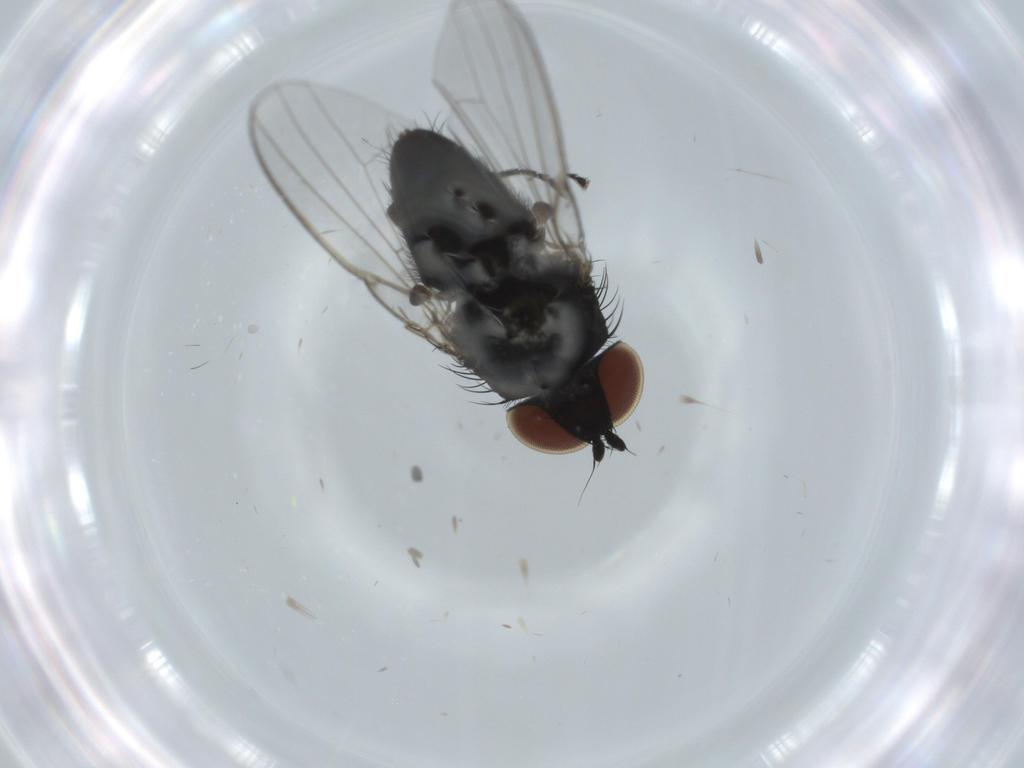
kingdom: Animalia
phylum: Arthropoda
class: Insecta
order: Diptera
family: Milichiidae
